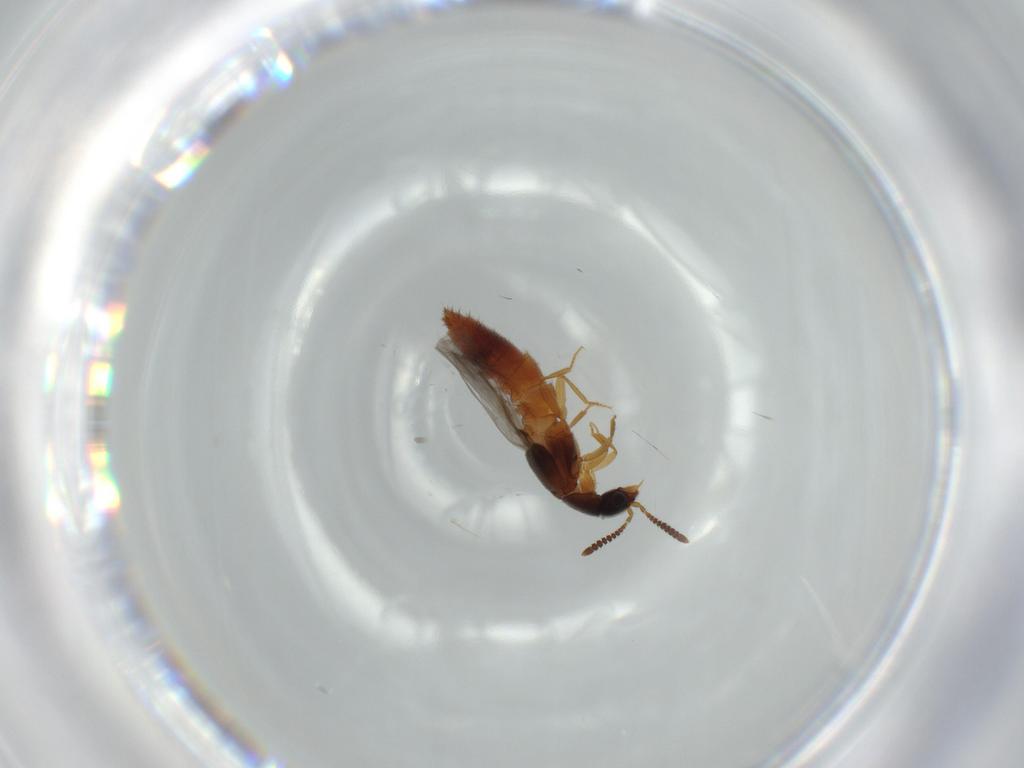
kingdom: Animalia
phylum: Arthropoda
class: Insecta
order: Coleoptera
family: Staphylinidae
